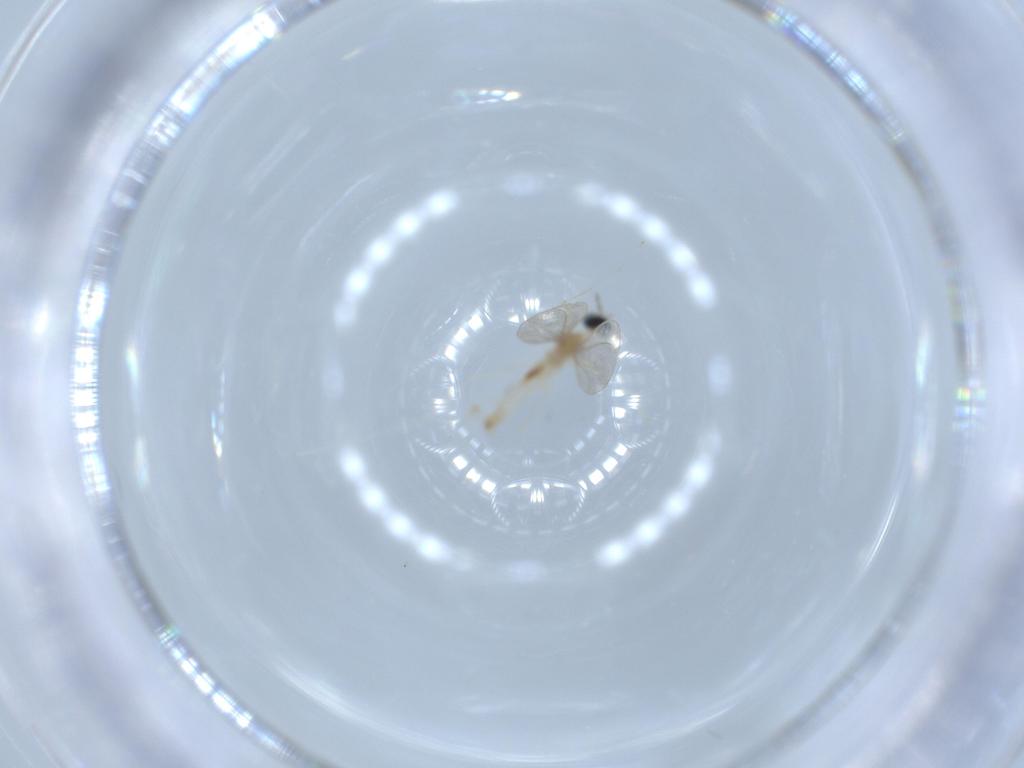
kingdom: Animalia
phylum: Arthropoda
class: Insecta
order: Diptera
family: Cecidomyiidae
